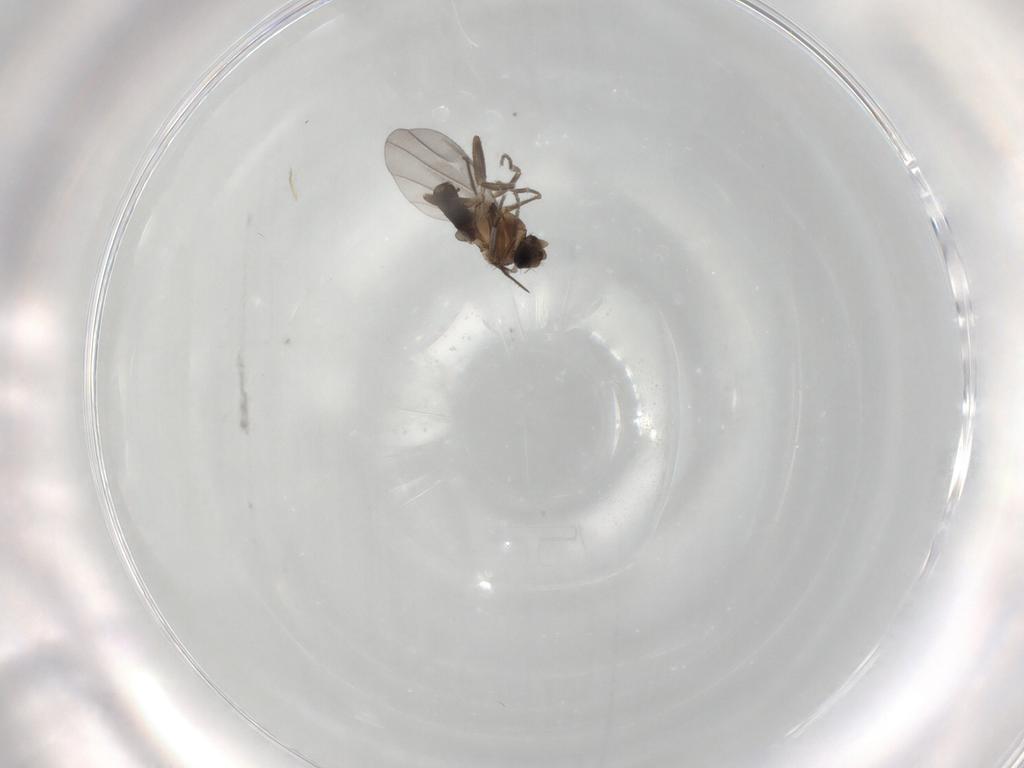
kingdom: Animalia
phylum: Arthropoda
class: Insecta
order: Diptera
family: Phoridae
